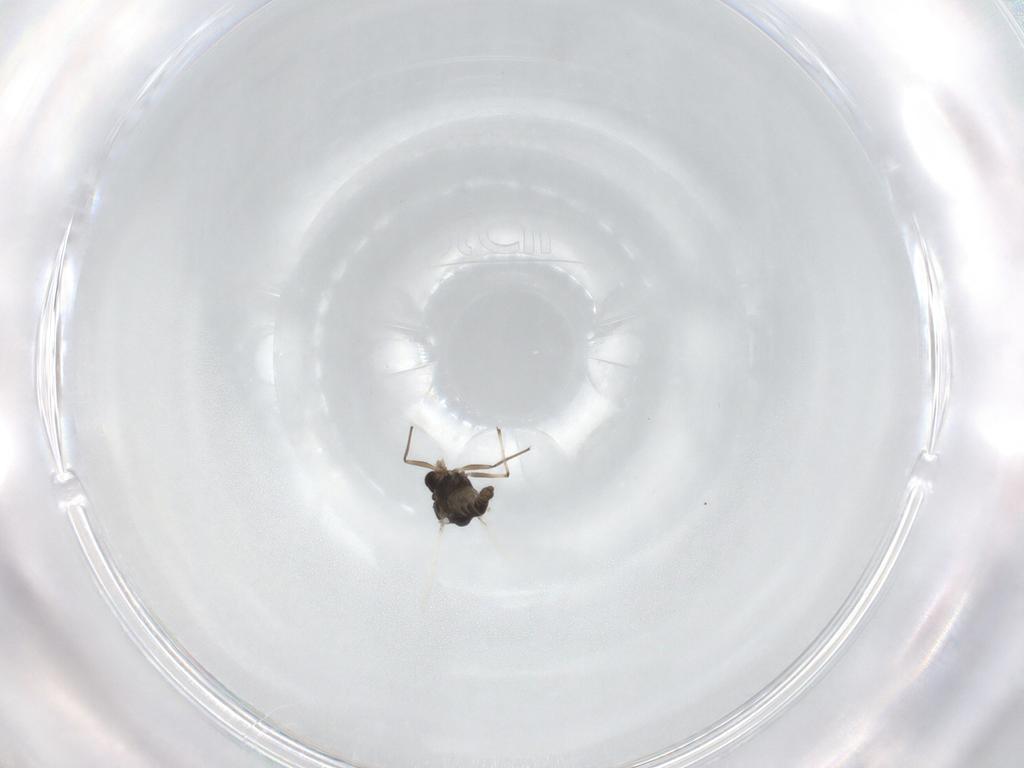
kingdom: Animalia
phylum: Arthropoda
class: Insecta
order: Diptera
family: Chironomidae
